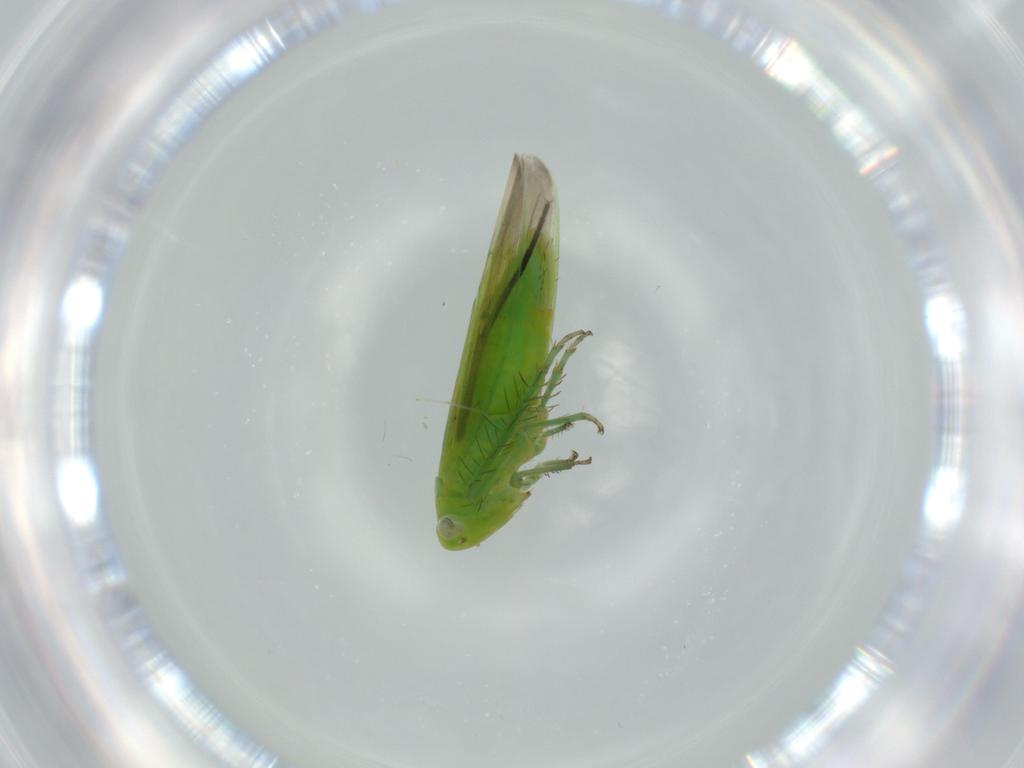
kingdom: Animalia
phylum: Arthropoda
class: Insecta
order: Hemiptera
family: Cicadellidae
